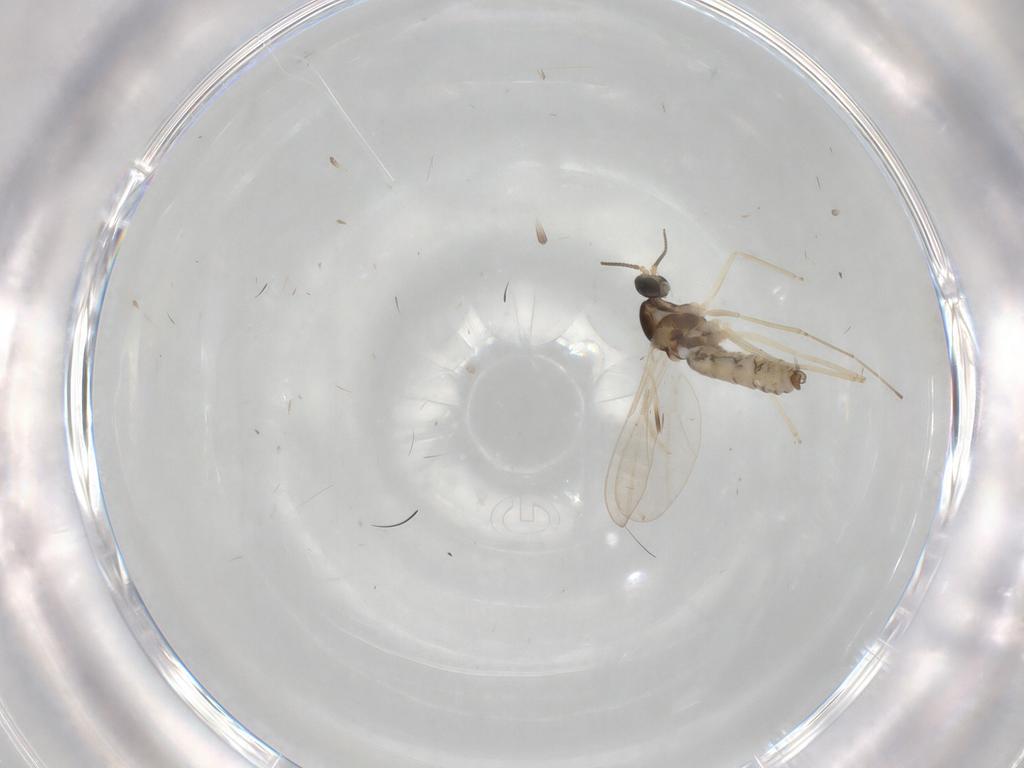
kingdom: Animalia
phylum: Arthropoda
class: Insecta
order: Diptera
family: Cecidomyiidae
